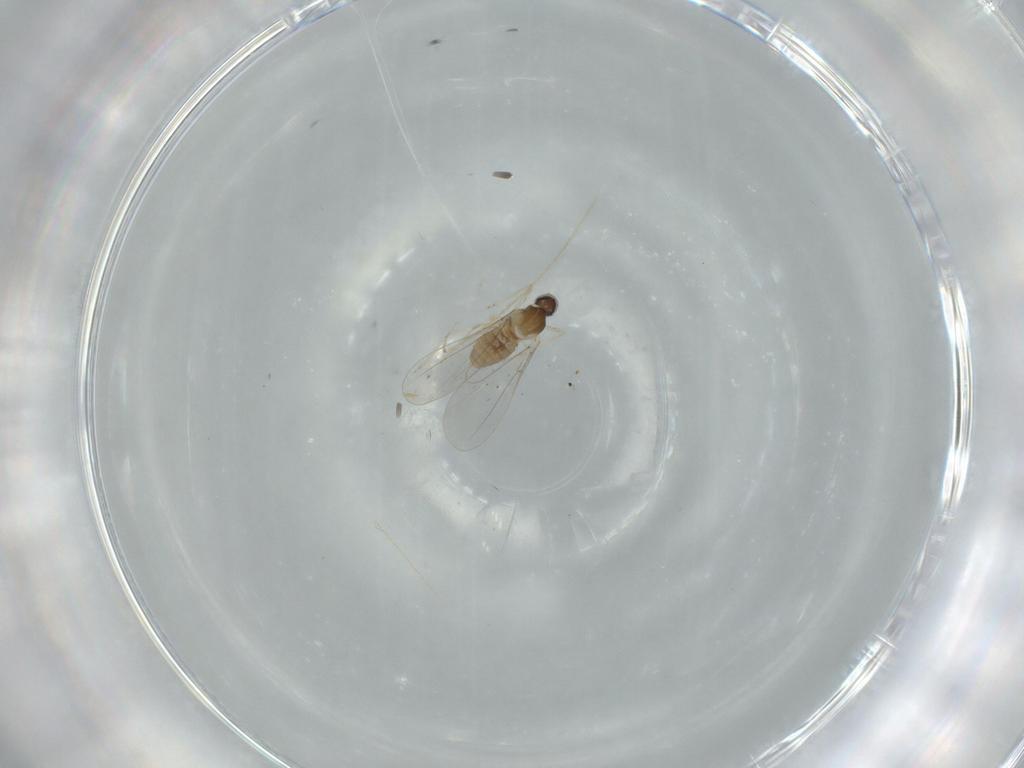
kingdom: Animalia
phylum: Arthropoda
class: Insecta
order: Diptera
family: Cecidomyiidae
